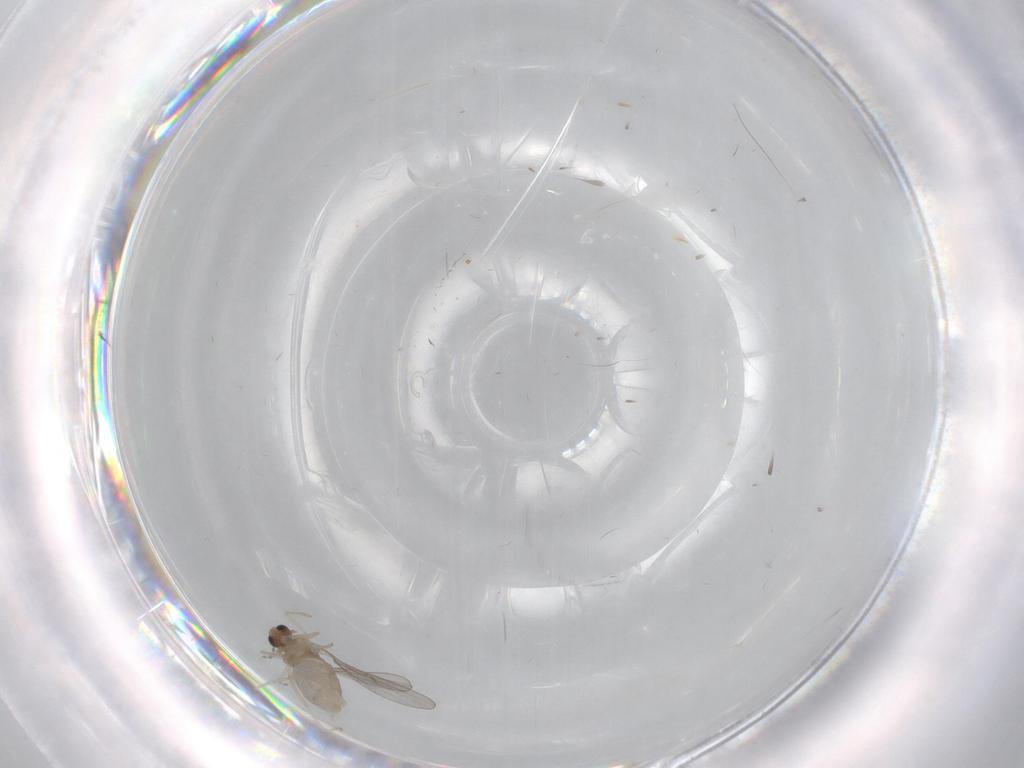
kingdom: Animalia
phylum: Arthropoda
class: Insecta
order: Diptera
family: Cecidomyiidae
